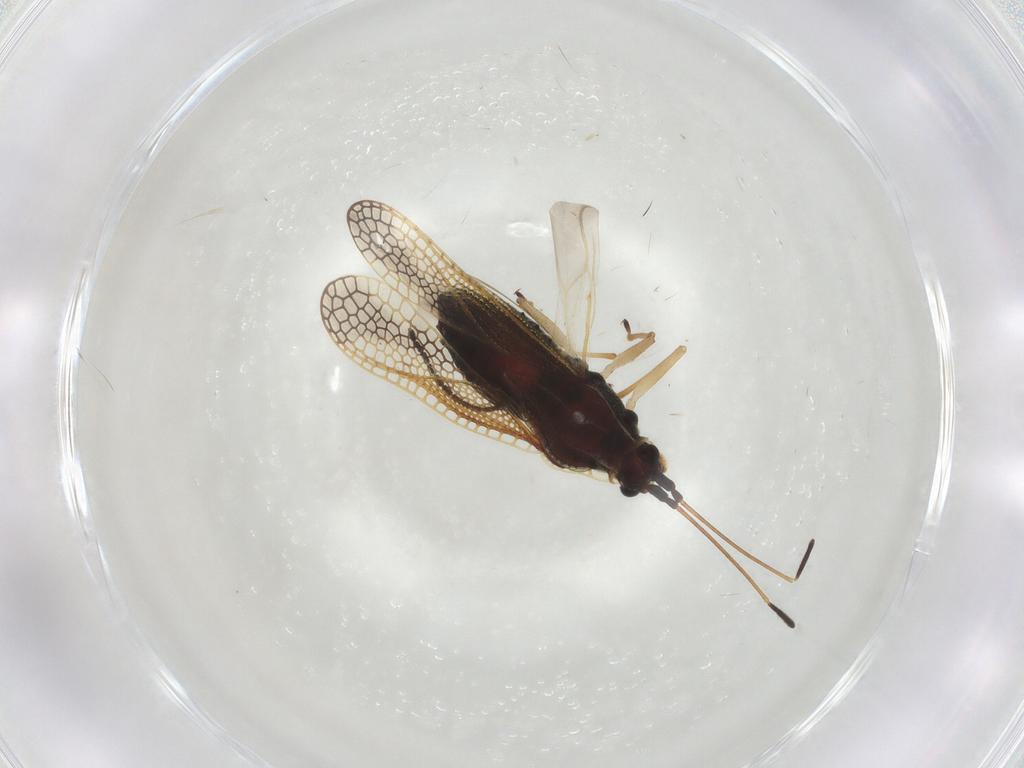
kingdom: Animalia
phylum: Arthropoda
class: Insecta
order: Hemiptera
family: Tingidae
